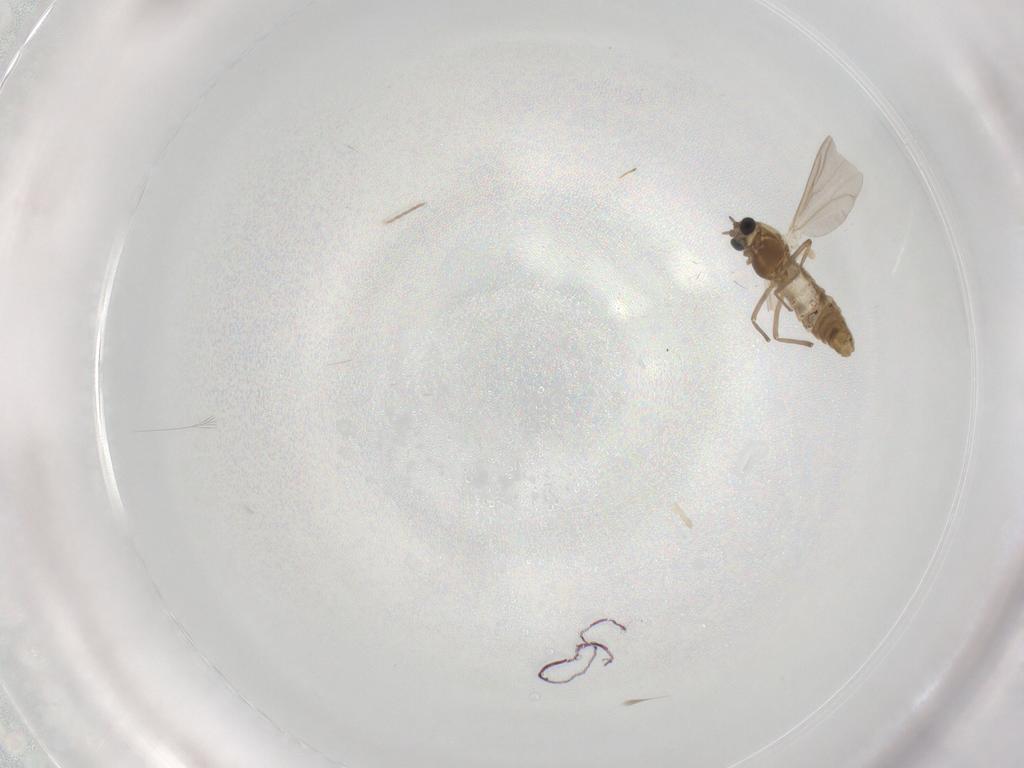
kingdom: Animalia
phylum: Arthropoda
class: Insecta
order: Diptera
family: Chironomidae
